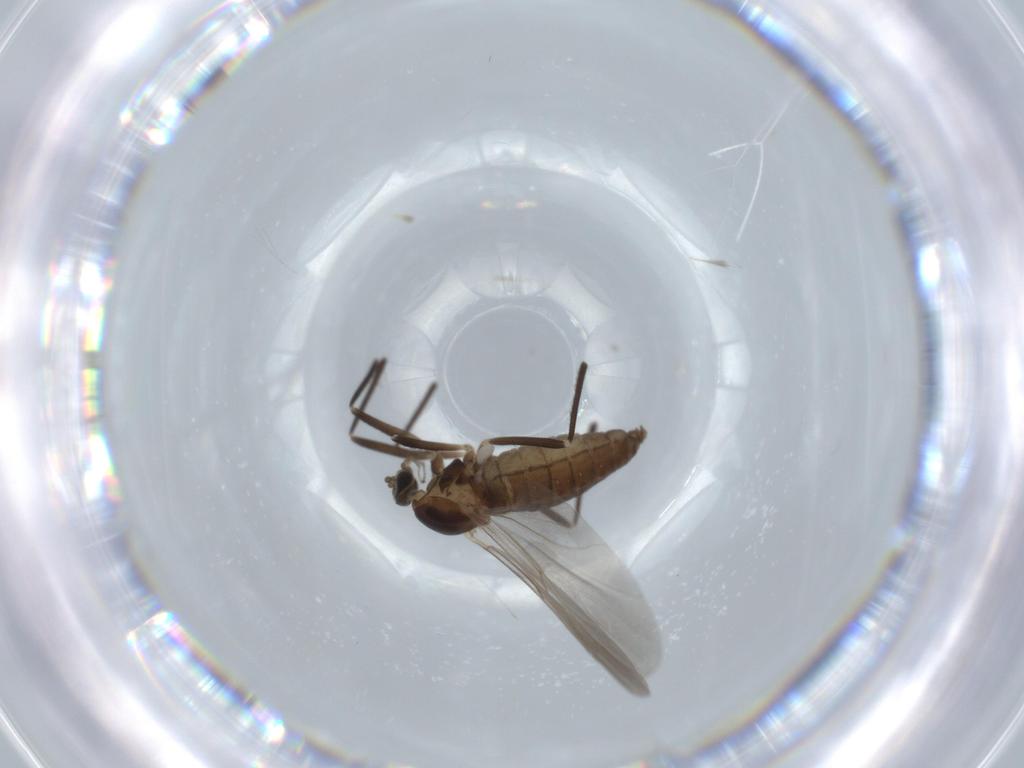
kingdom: Animalia
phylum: Arthropoda
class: Insecta
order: Diptera
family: Cecidomyiidae
